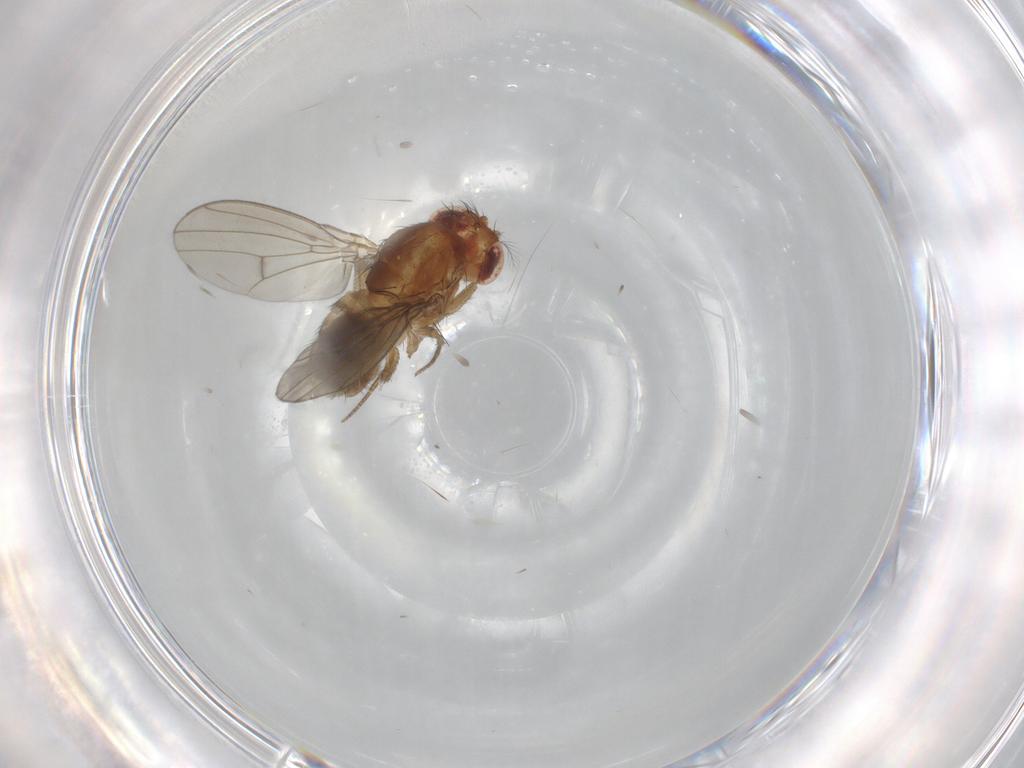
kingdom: Animalia
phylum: Arthropoda
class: Insecta
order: Diptera
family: Drosophilidae
